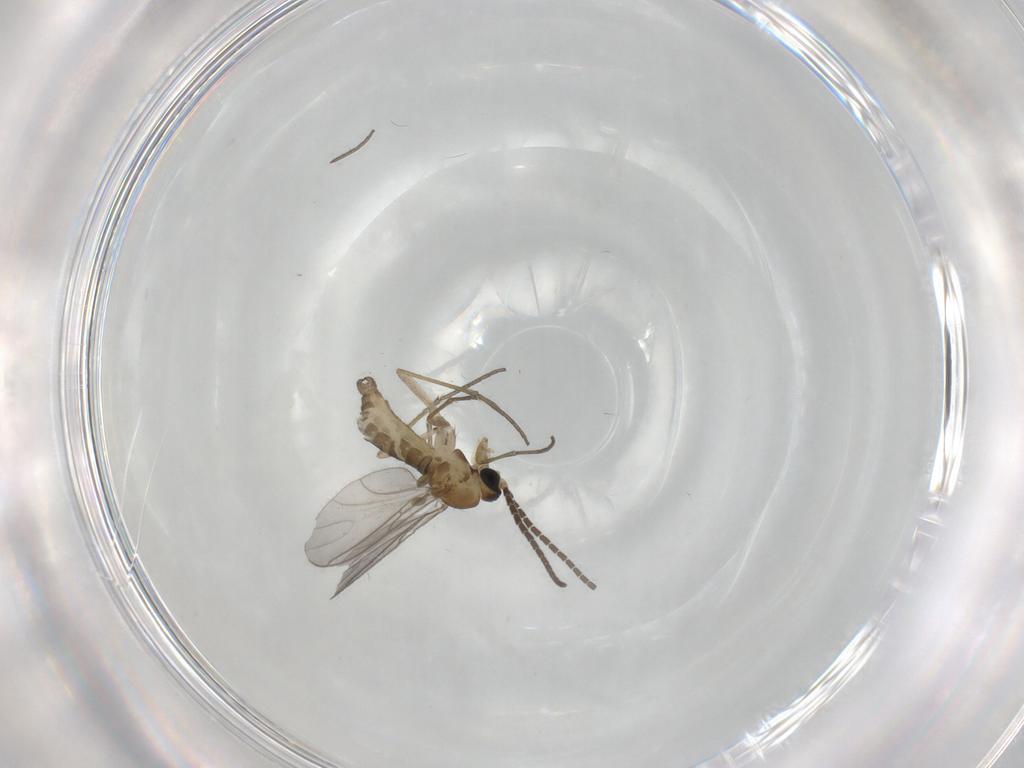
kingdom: Animalia
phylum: Arthropoda
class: Insecta
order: Diptera
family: Sciaridae
